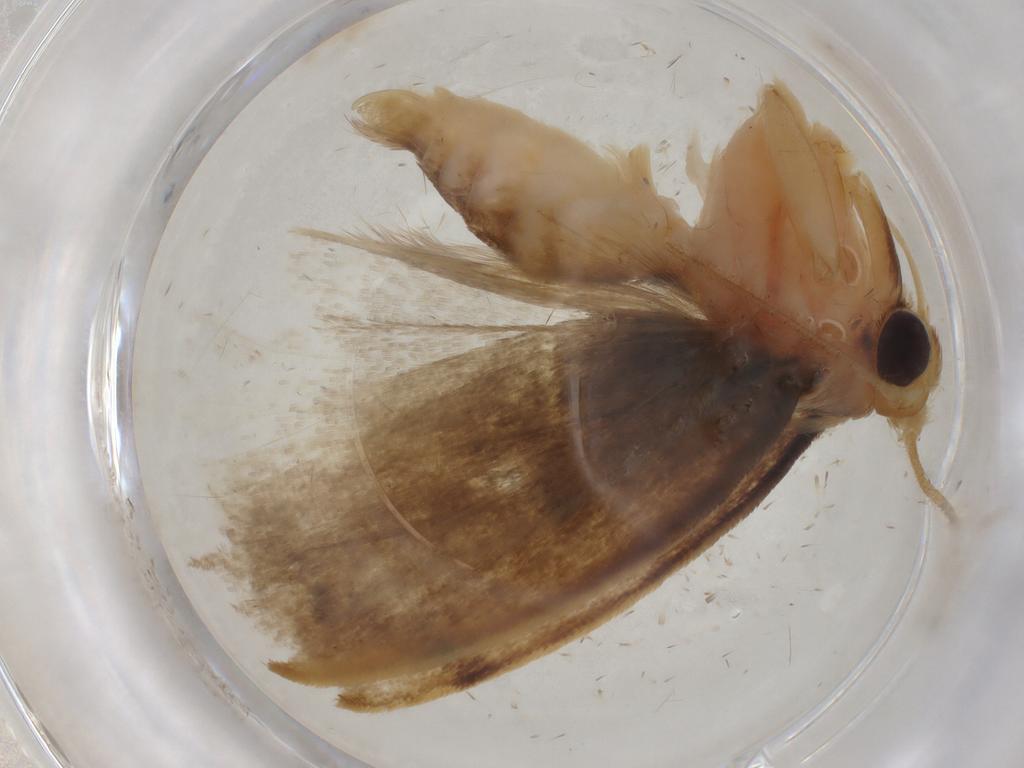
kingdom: Animalia
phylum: Arthropoda
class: Insecta
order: Lepidoptera
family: Depressariidae
